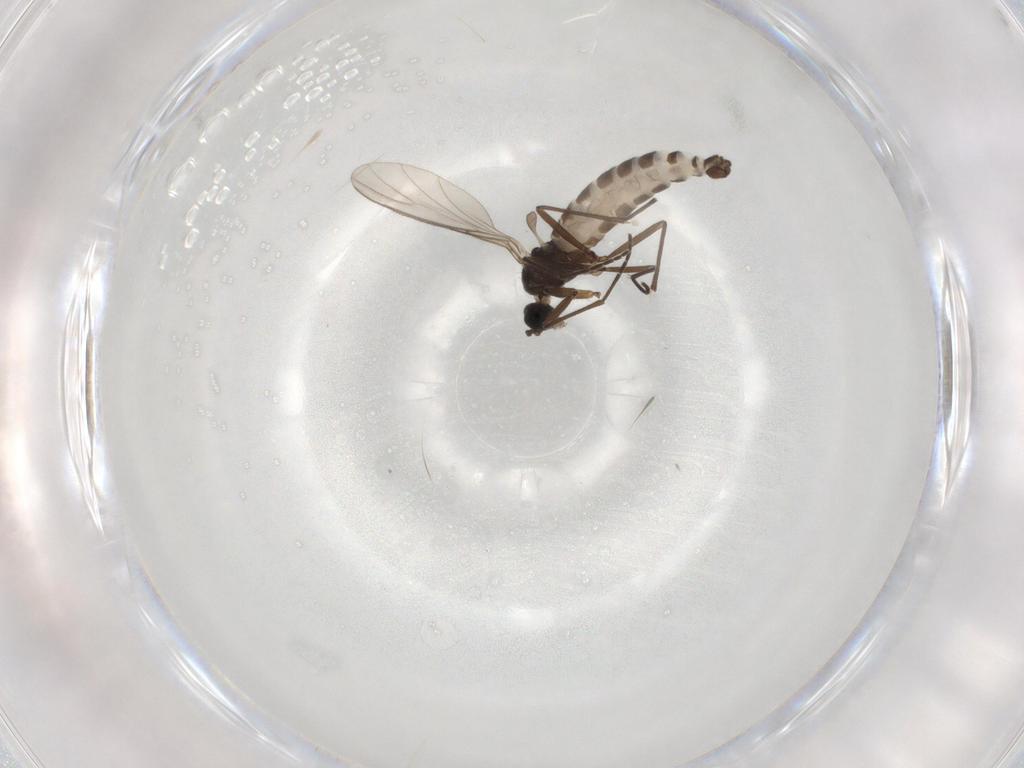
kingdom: Animalia
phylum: Arthropoda
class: Insecta
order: Diptera
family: Cecidomyiidae
